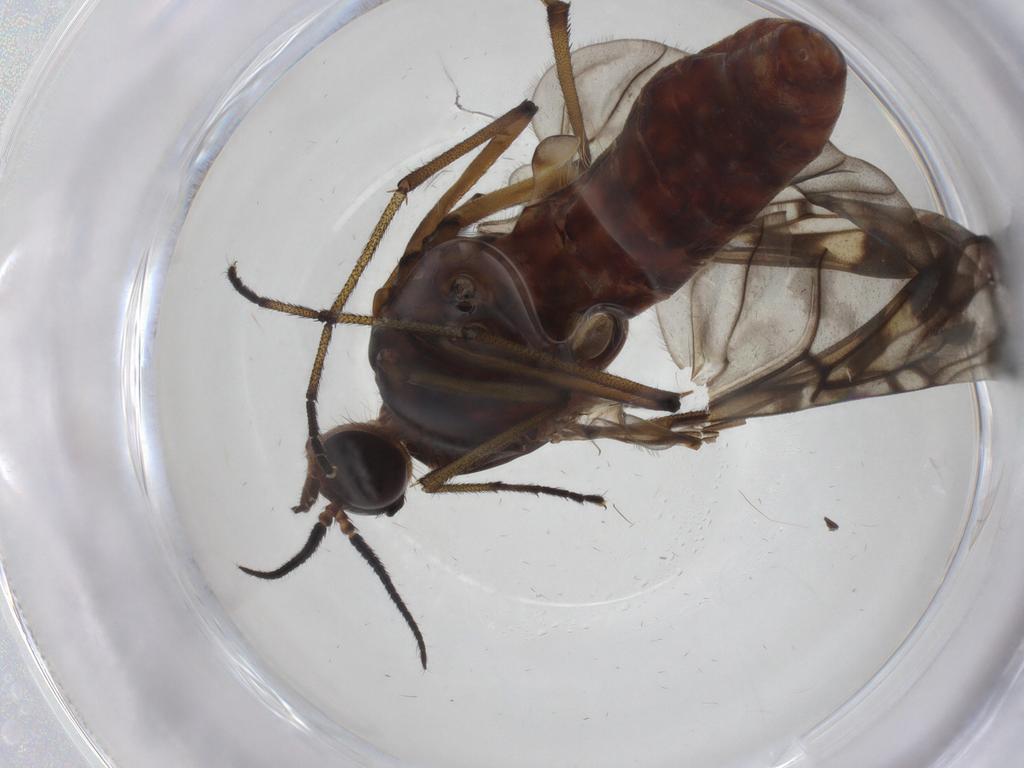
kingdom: Animalia
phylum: Arthropoda
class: Insecta
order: Diptera
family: Anisopodidae
